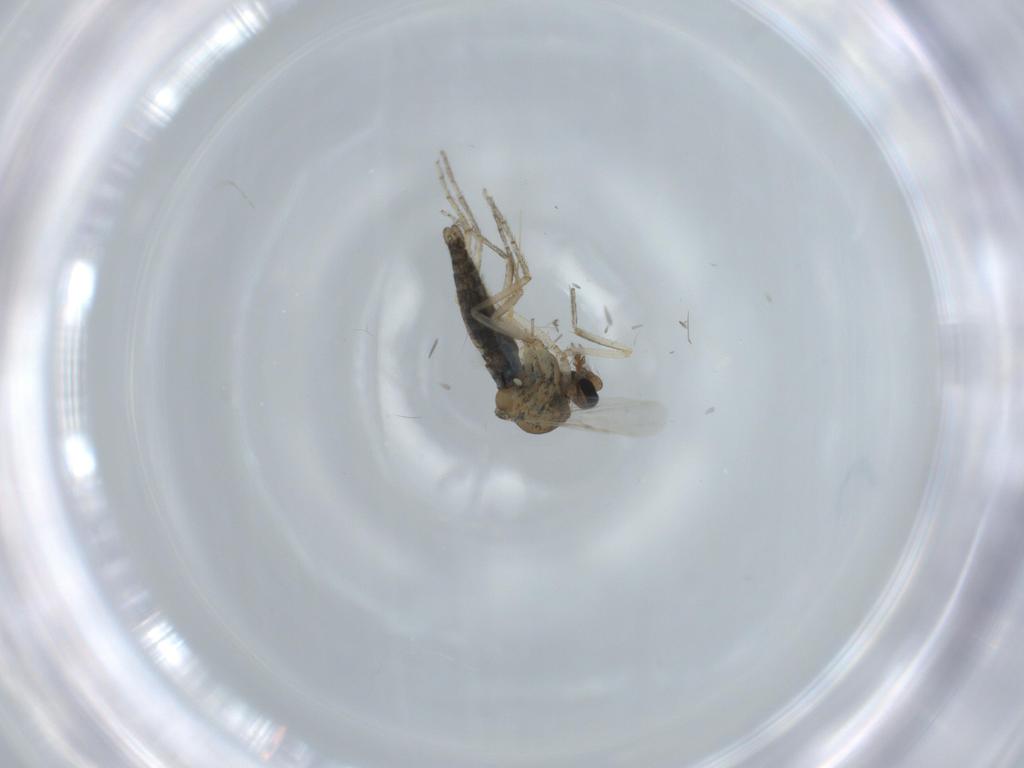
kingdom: Animalia
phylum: Arthropoda
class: Insecta
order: Diptera
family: Ceratopogonidae
